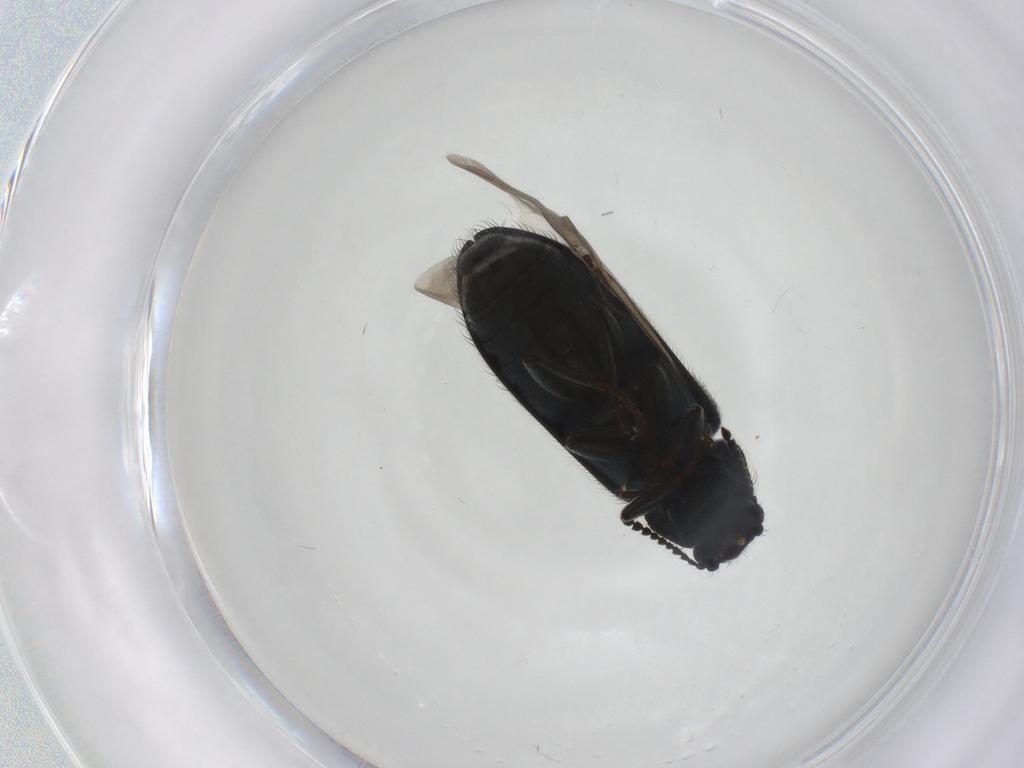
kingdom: Animalia
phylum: Arthropoda
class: Insecta
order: Coleoptera
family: Melyridae
